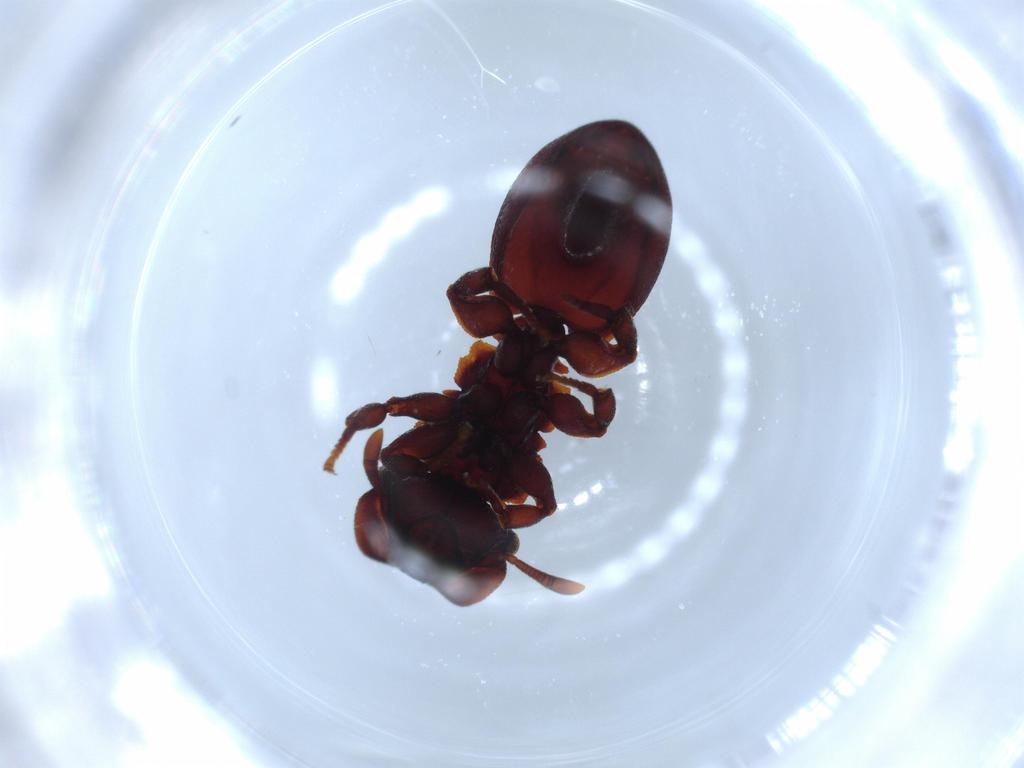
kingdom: Animalia
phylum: Arthropoda
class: Insecta
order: Hymenoptera
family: Formicidae
